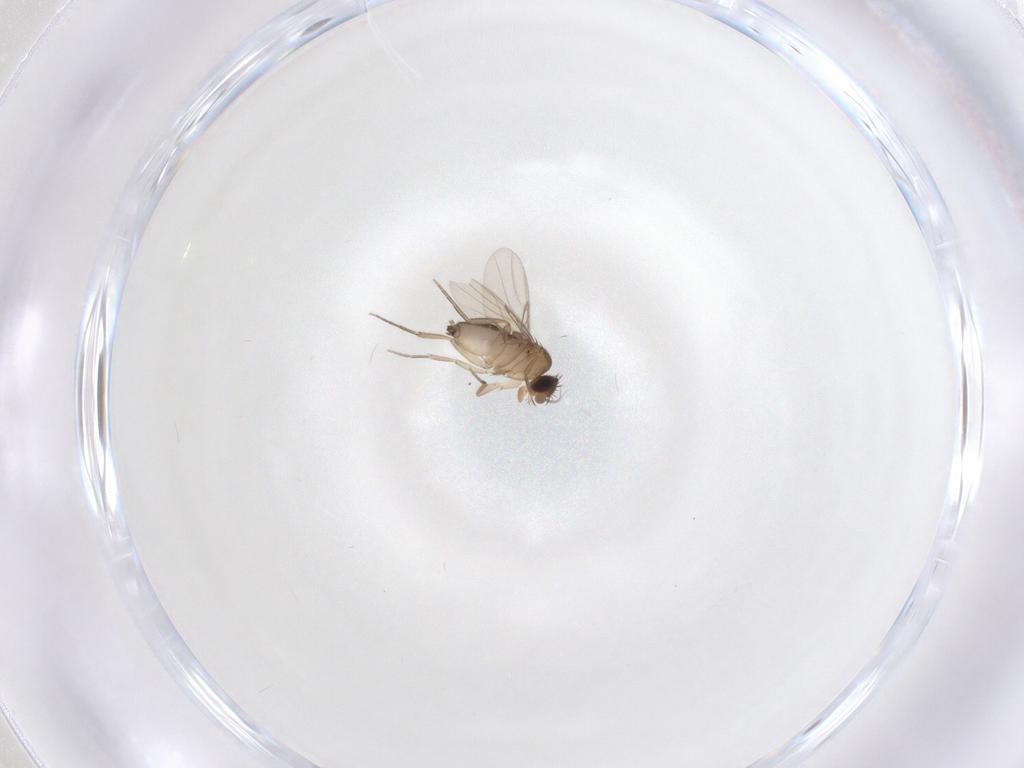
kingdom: Animalia
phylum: Arthropoda
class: Insecta
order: Diptera
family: Phoridae
